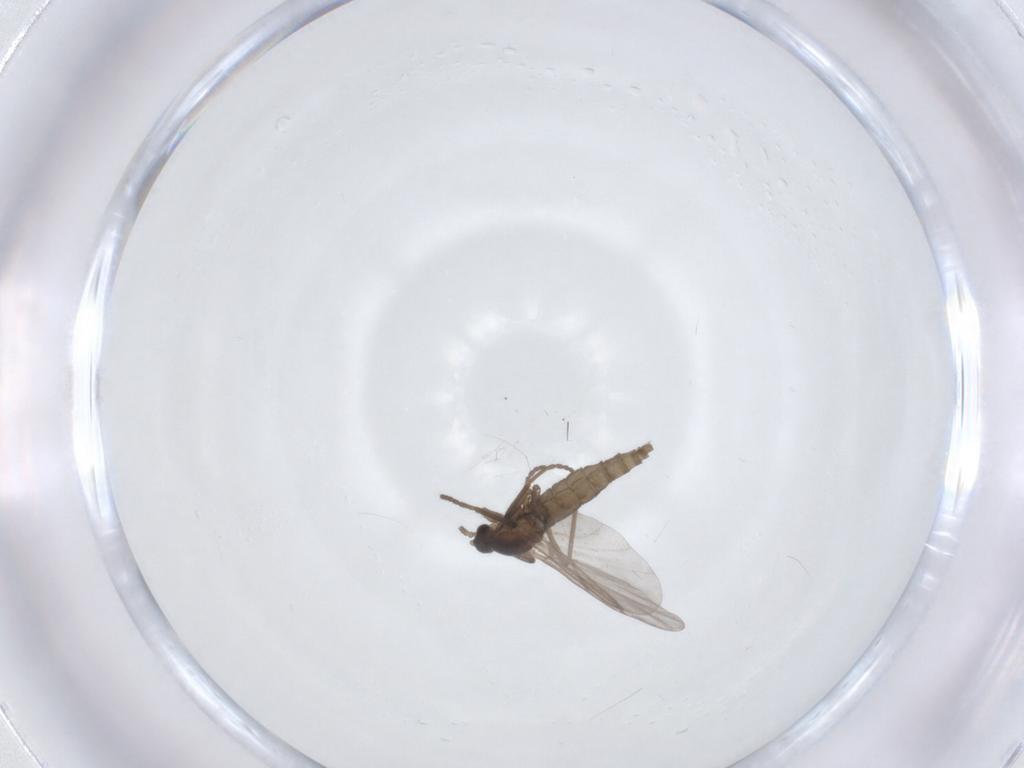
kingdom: Animalia
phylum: Arthropoda
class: Insecta
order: Diptera
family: Cecidomyiidae
